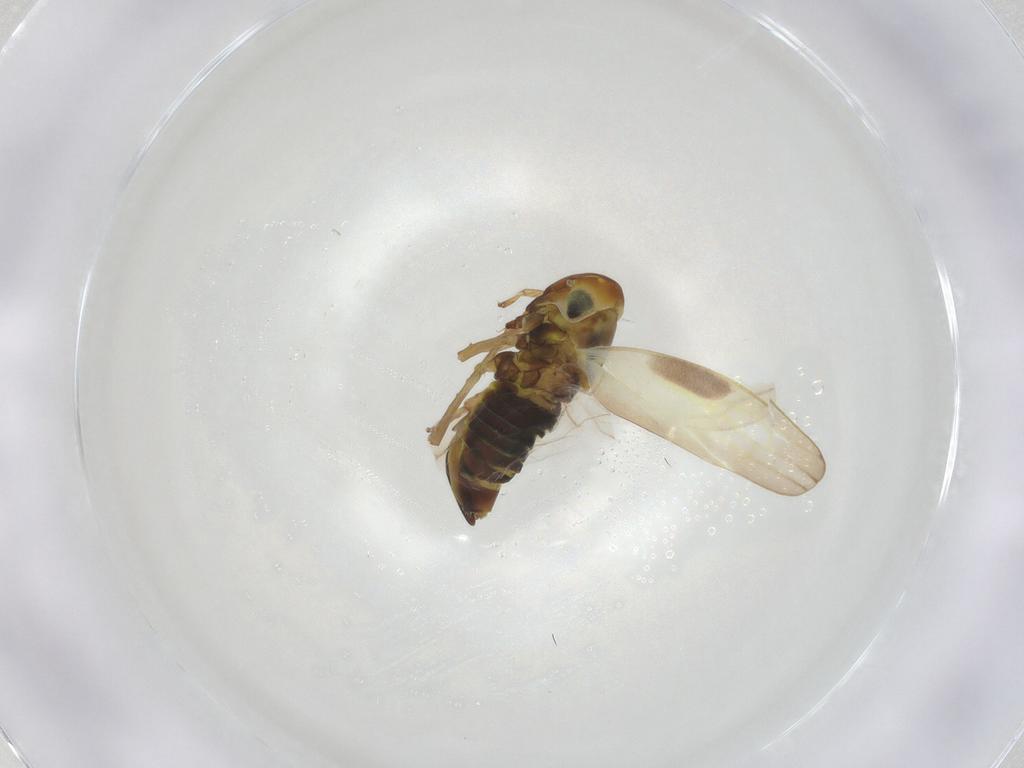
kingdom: Animalia
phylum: Arthropoda
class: Insecta
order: Hemiptera
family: Cicadellidae
